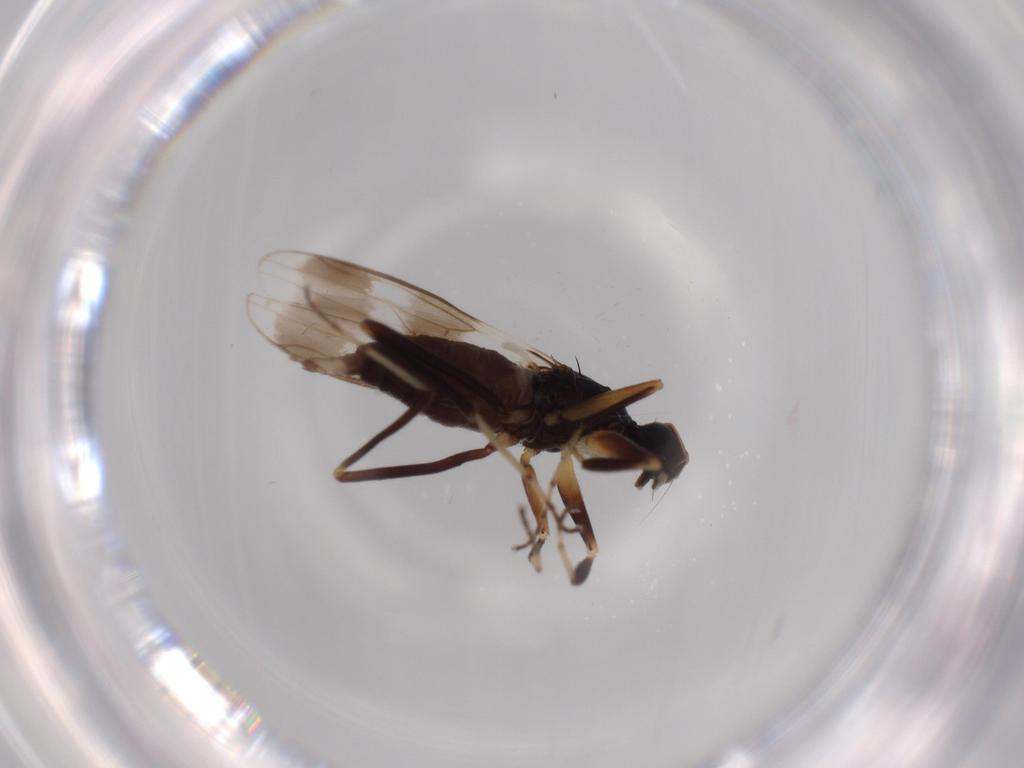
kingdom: Animalia
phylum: Arthropoda
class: Insecta
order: Diptera
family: Hybotidae
